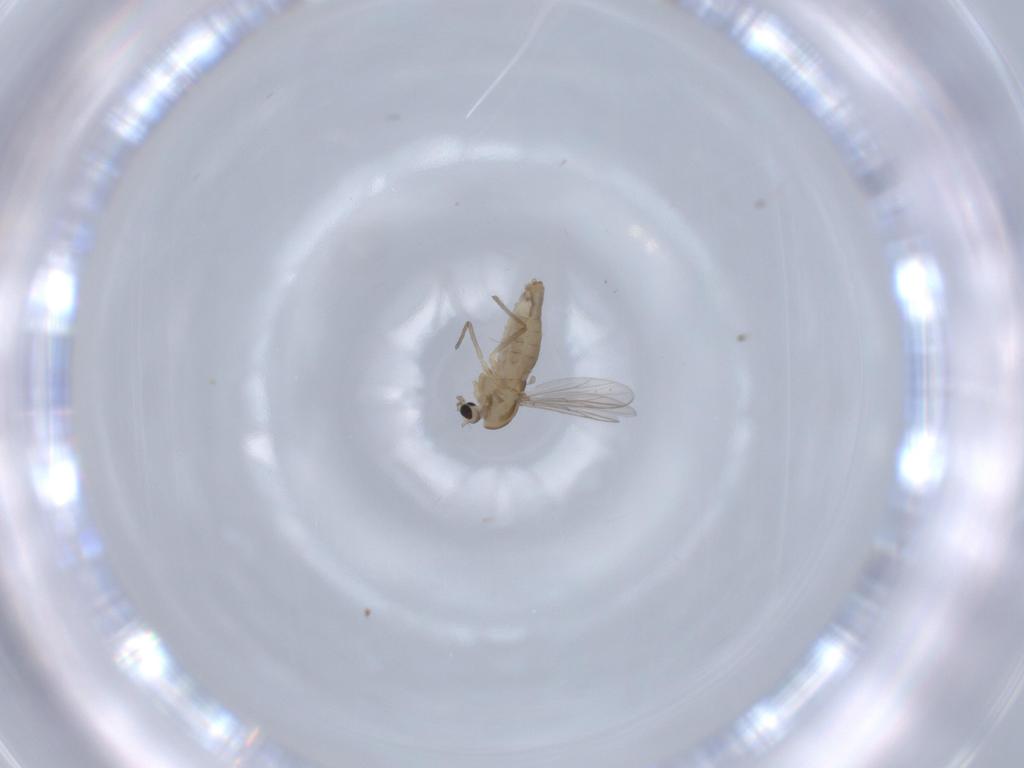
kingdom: Animalia
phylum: Arthropoda
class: Insecta
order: Diptera
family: Chironomidae
